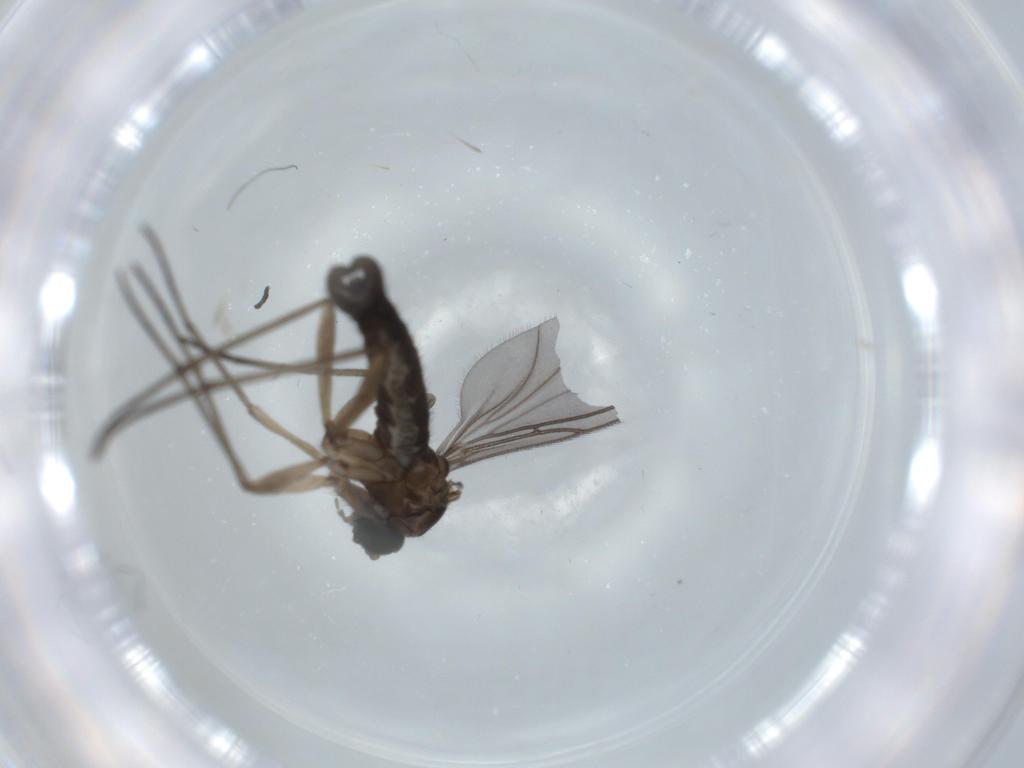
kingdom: Animalia
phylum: Arthropoda
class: Insecta
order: Diptera
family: Sciaridae
